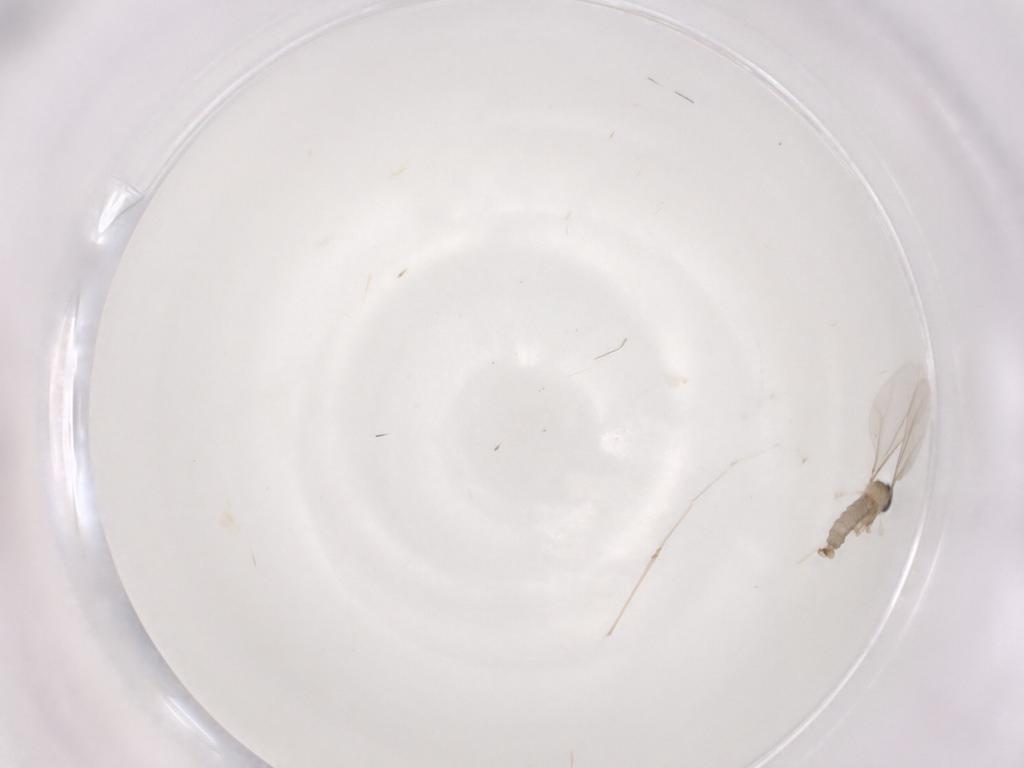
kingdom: Animalia
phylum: Arthropoda
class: Insecta
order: Diptera
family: Cecidomyiidae
